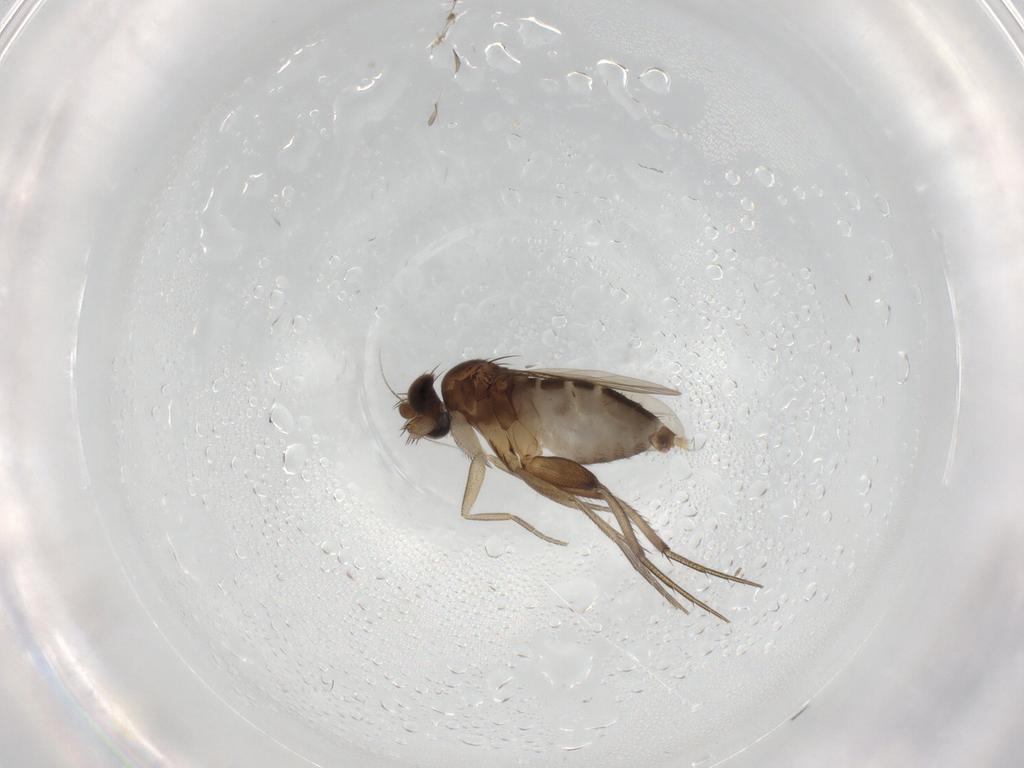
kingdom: Animalia
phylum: Arthropoda
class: Insecta
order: Diptera
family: Phoridae
